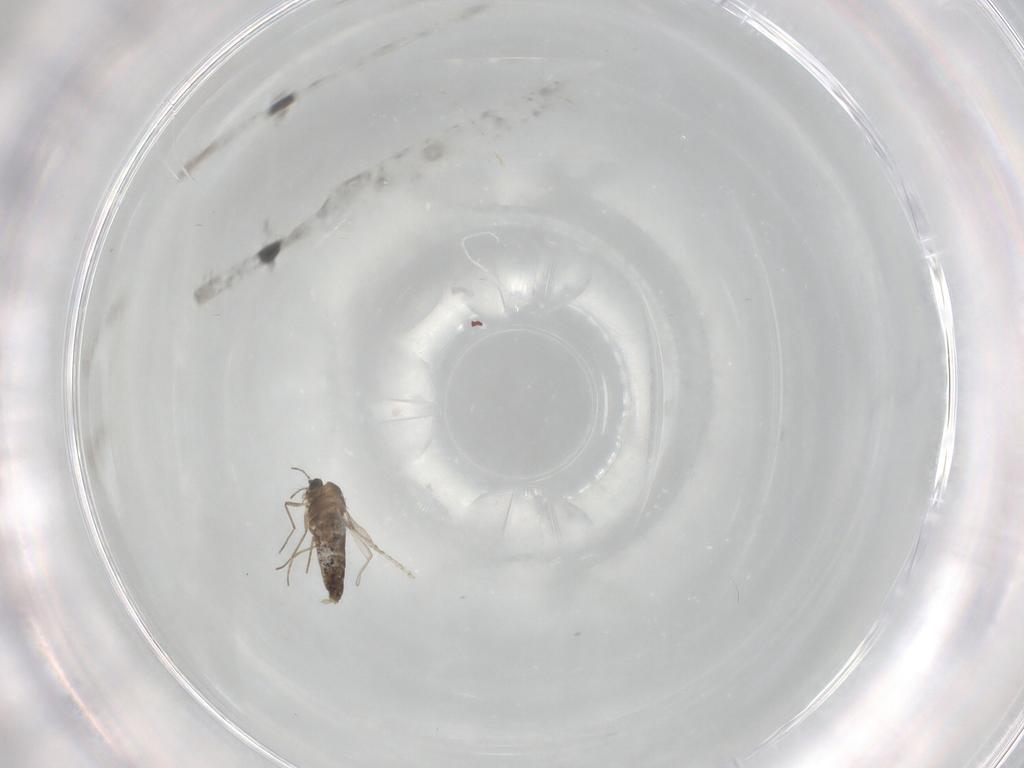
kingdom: Animalia
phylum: Arthropoda
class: Insecta
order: Diptera
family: Chironomidae
